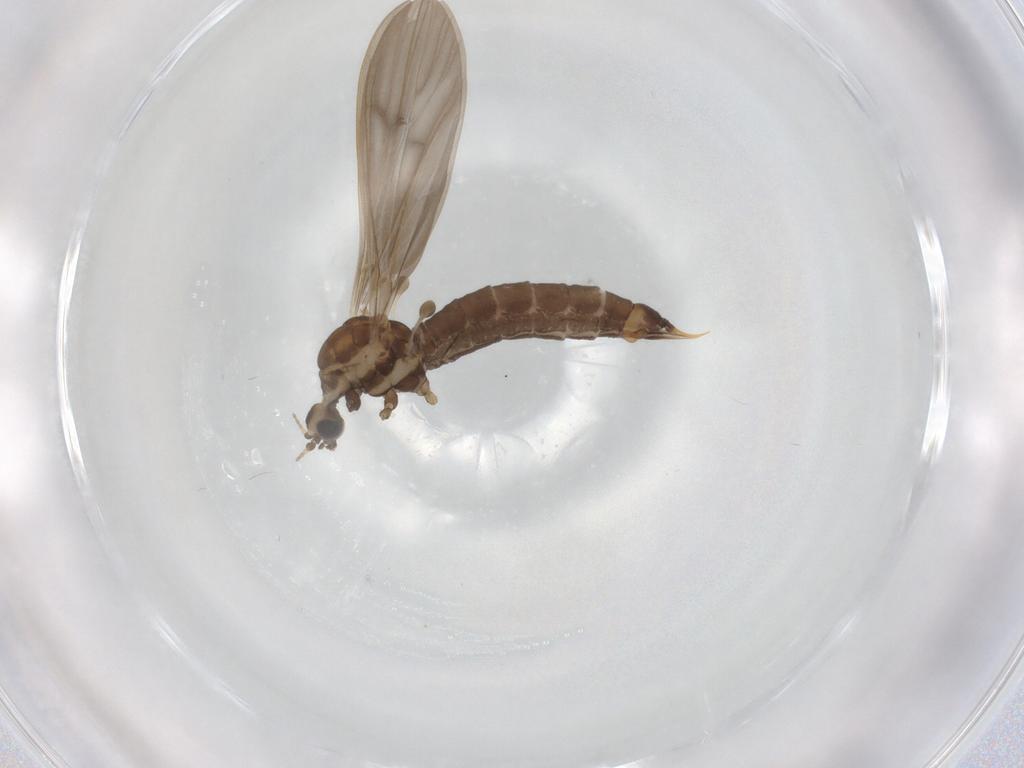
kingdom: Animalia
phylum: Arthropoda
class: Insecta
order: Diptera
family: Limoniidae
